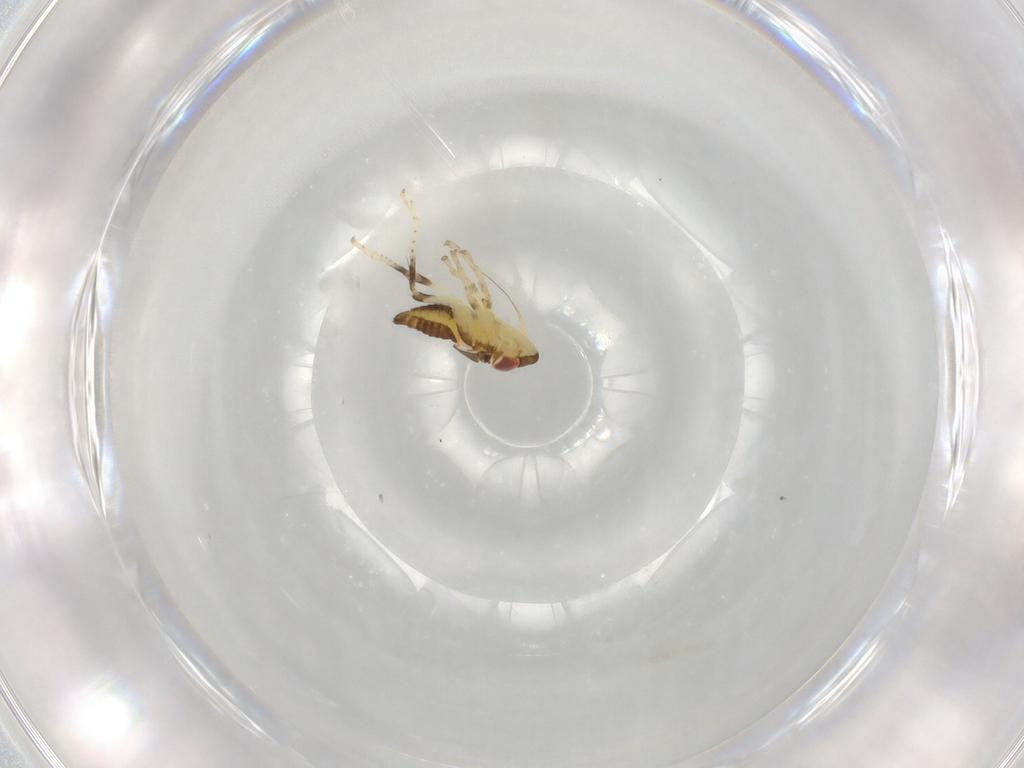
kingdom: Animalia
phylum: Arthropoda
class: Insecta
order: Hemiptera
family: Cicadellidae
